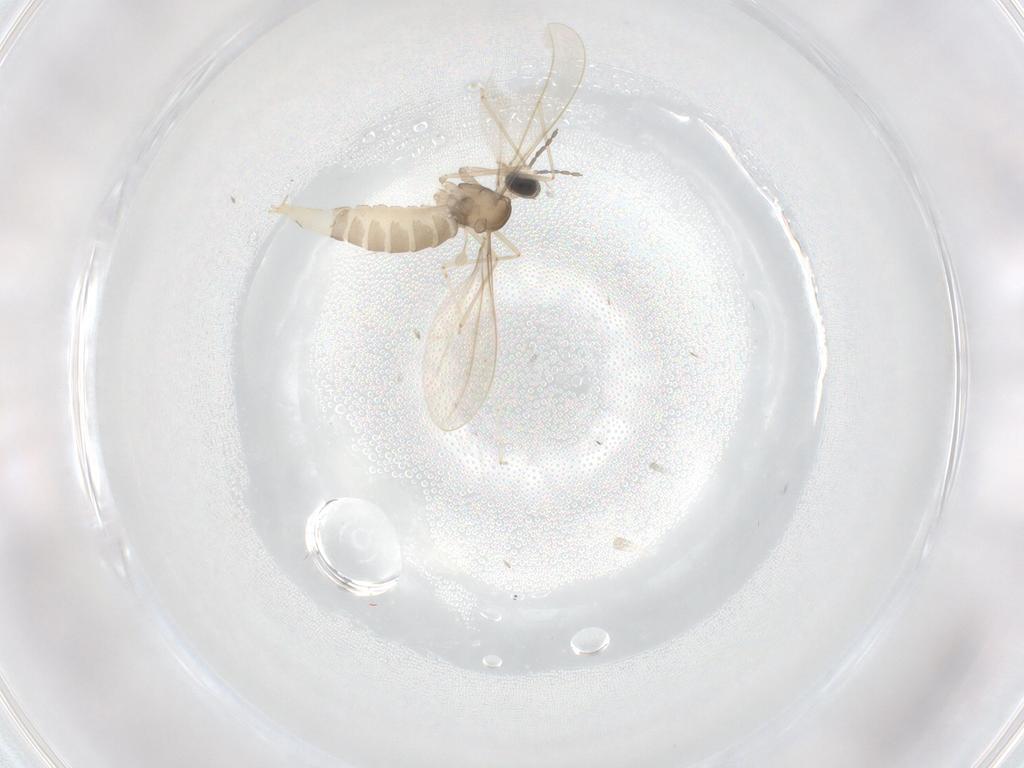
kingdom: Animalia
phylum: Arthropoda
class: Insecta
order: Diptera
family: Cecidomyiidae
